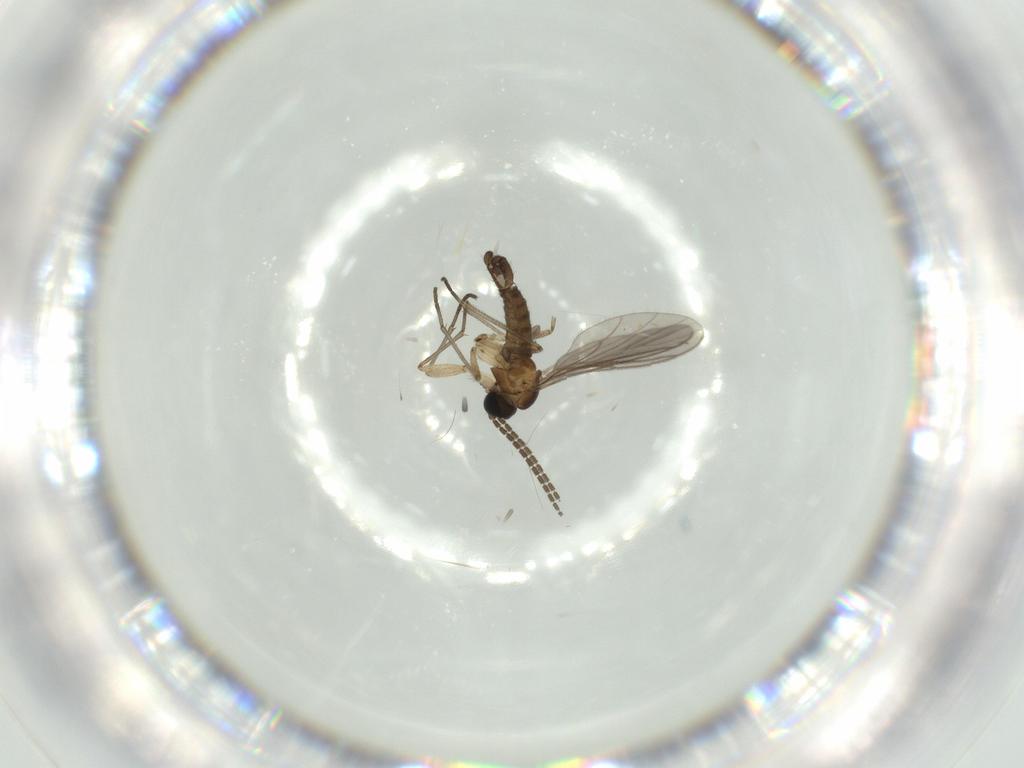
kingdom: Animalia
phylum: Arthropoda
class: Insecta
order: Diptera
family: Sciaridae
